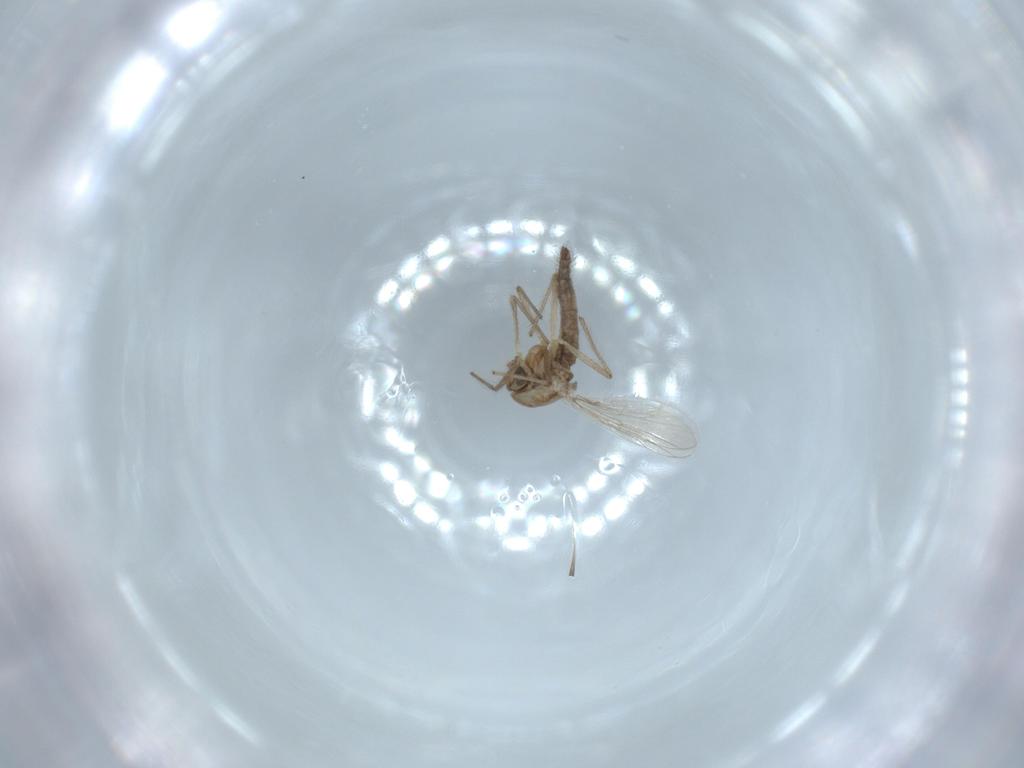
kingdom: Animalia
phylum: Arthropoda
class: Insecta
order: Diptera
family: Chironomidae
